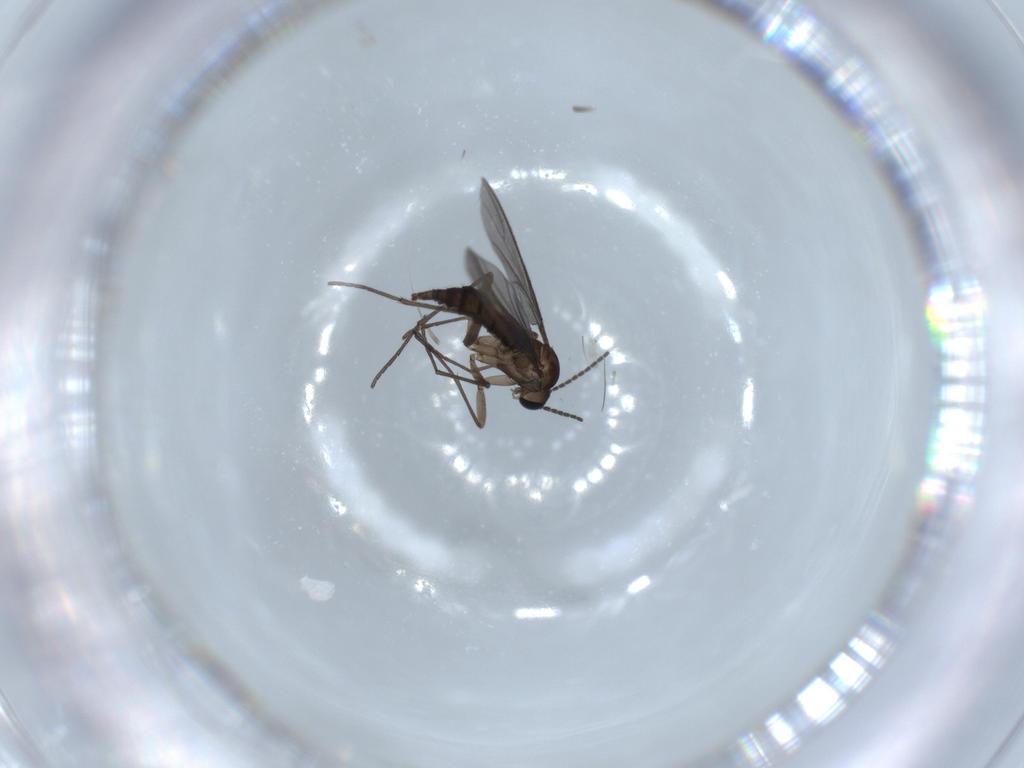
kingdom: Animalia
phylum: Arthropoda
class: Insecta
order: Diptera
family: Sciaridae
